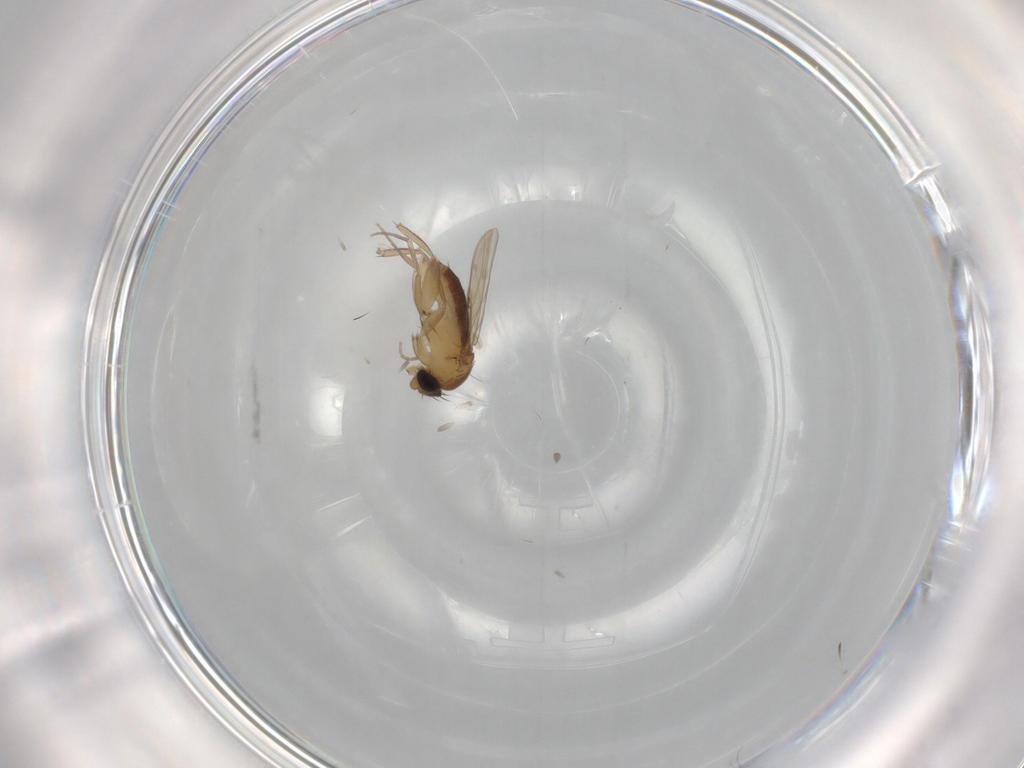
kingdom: Animalia
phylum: Arthropoda
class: Insecta
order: Diptera
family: Phoridae
